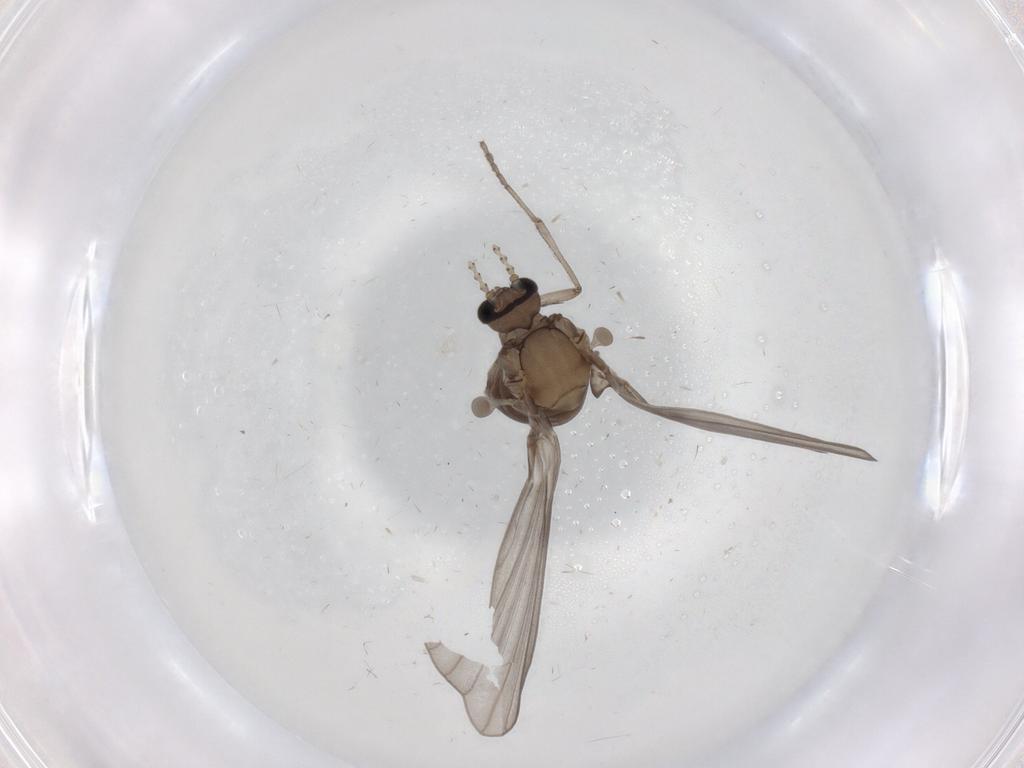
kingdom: Animalia
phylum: Arthropoda
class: Insecta
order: Diptera
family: Psychodidae
